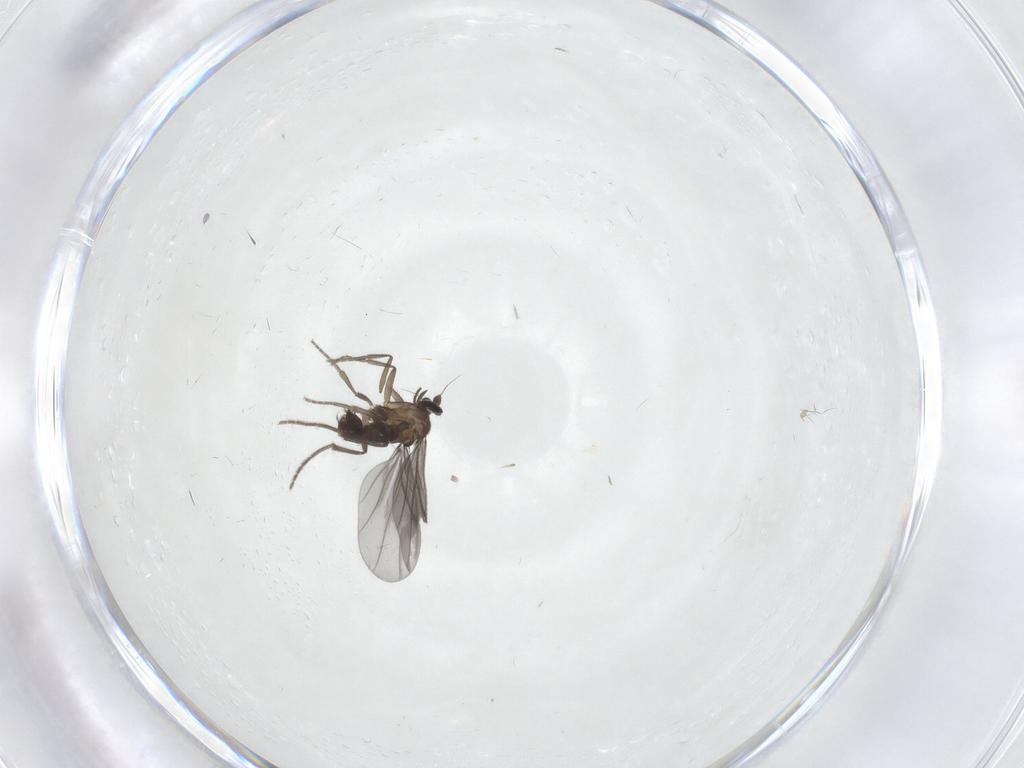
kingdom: Animalia
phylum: Arthropoda
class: Insecta
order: Diptera
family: Phoridae
